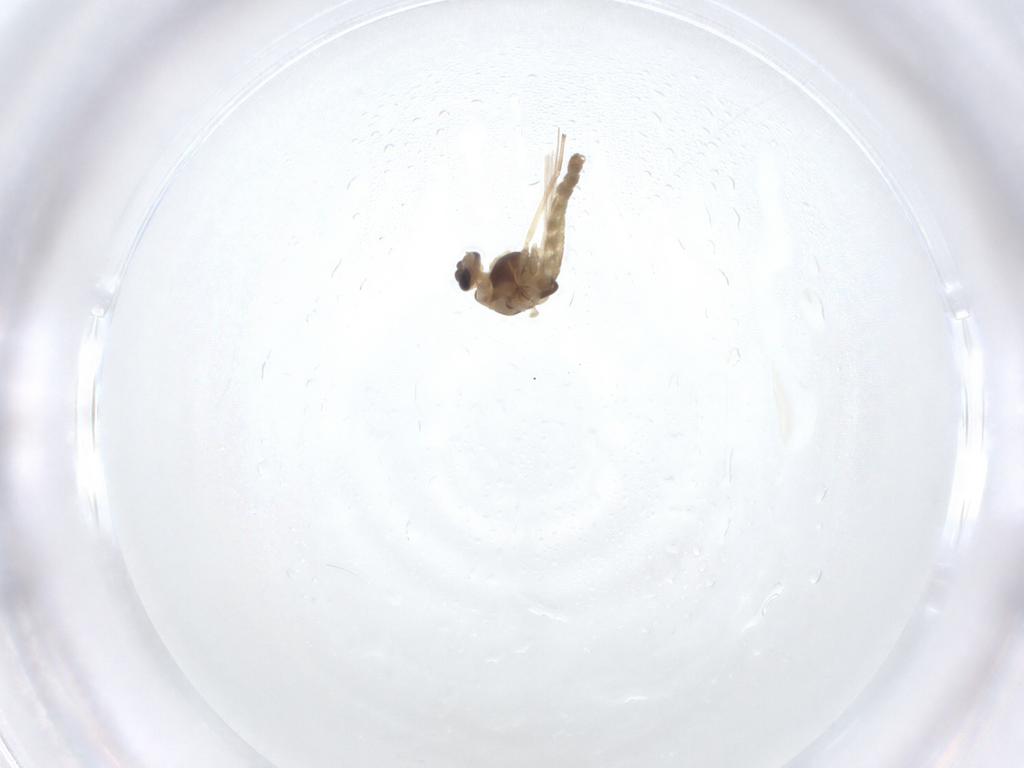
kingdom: Animalia
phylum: Arthropoda
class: Insecta
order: Diptera
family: Chironomidae
